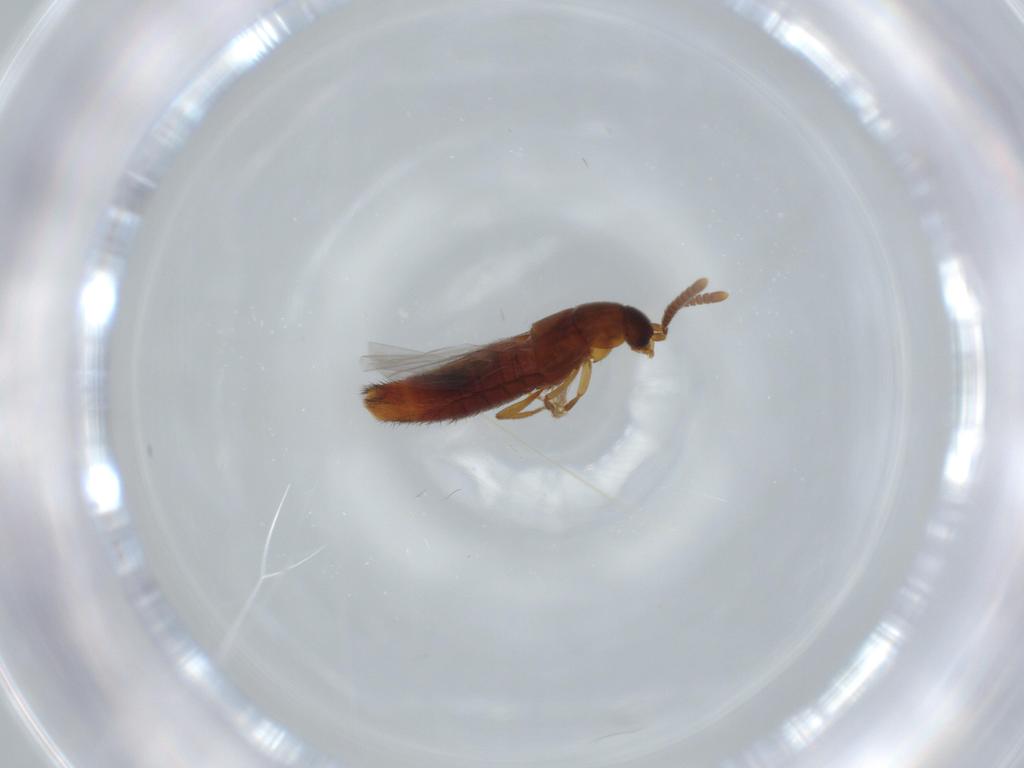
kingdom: Animalia
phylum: Arthropoda
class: Insecta
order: Coleoptera
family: Staphylinidae
